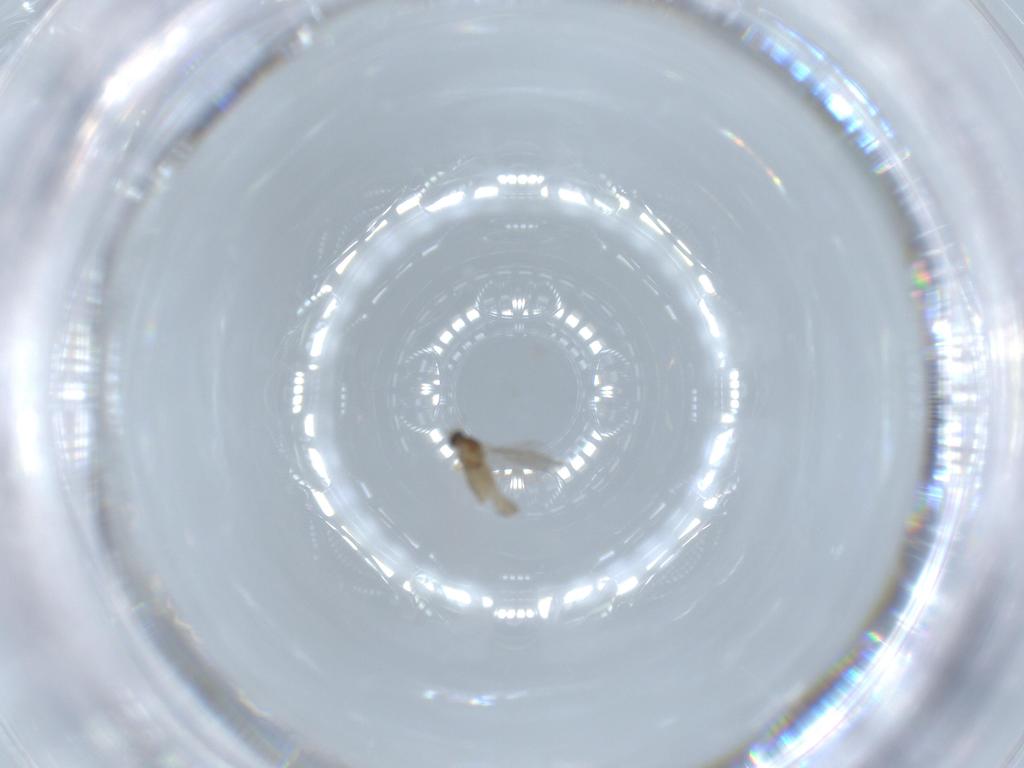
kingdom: Animalia
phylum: Arthropoda
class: Insecta
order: Diptera
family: Cecidomyiidae
